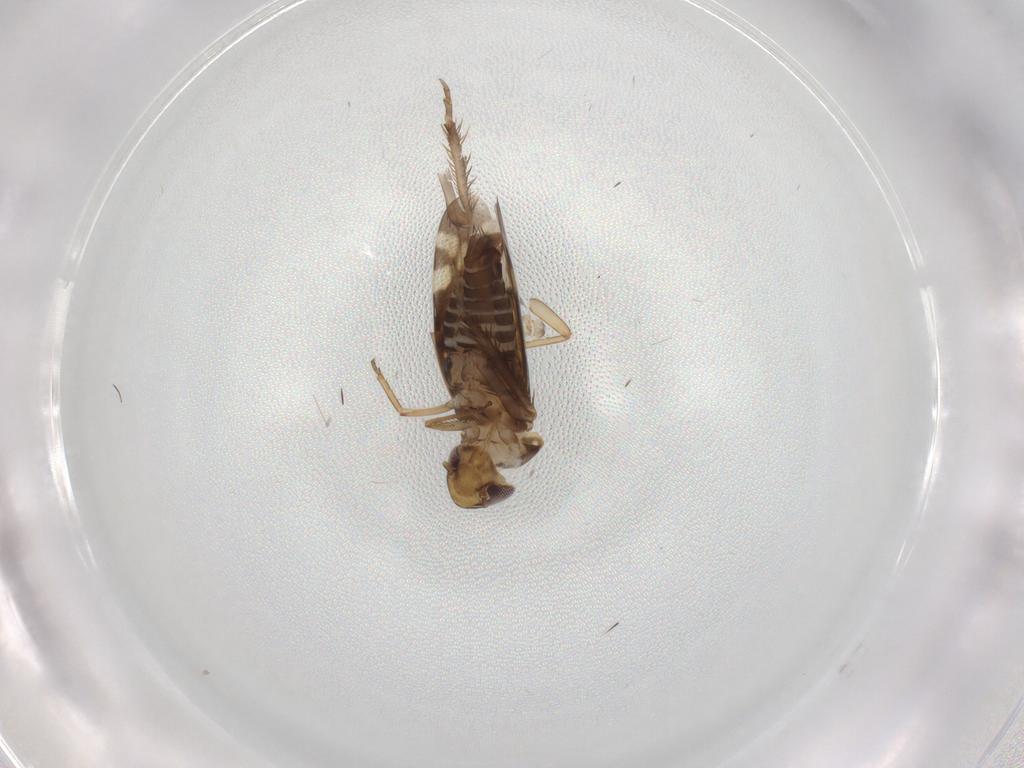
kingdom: Animalia
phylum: Arthropoda
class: Insecta
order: Hemiptera
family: Cicadellidae
